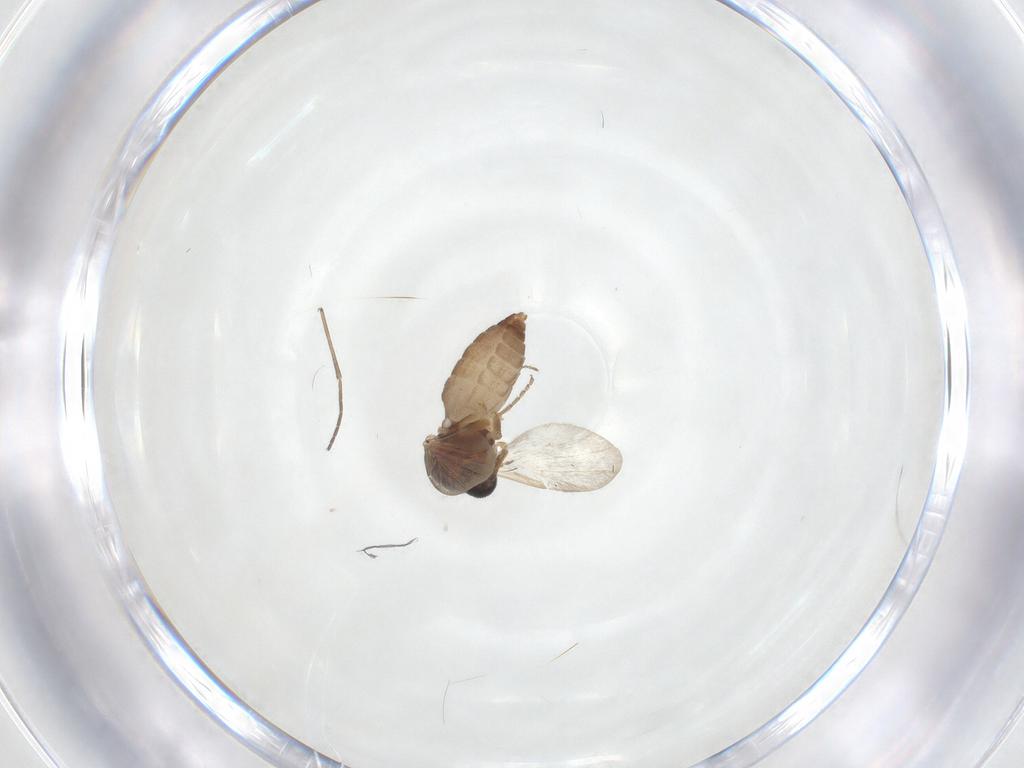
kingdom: Animalia
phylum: Arthropoda
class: Insecta
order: Diptera
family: Ceratopogonidae
